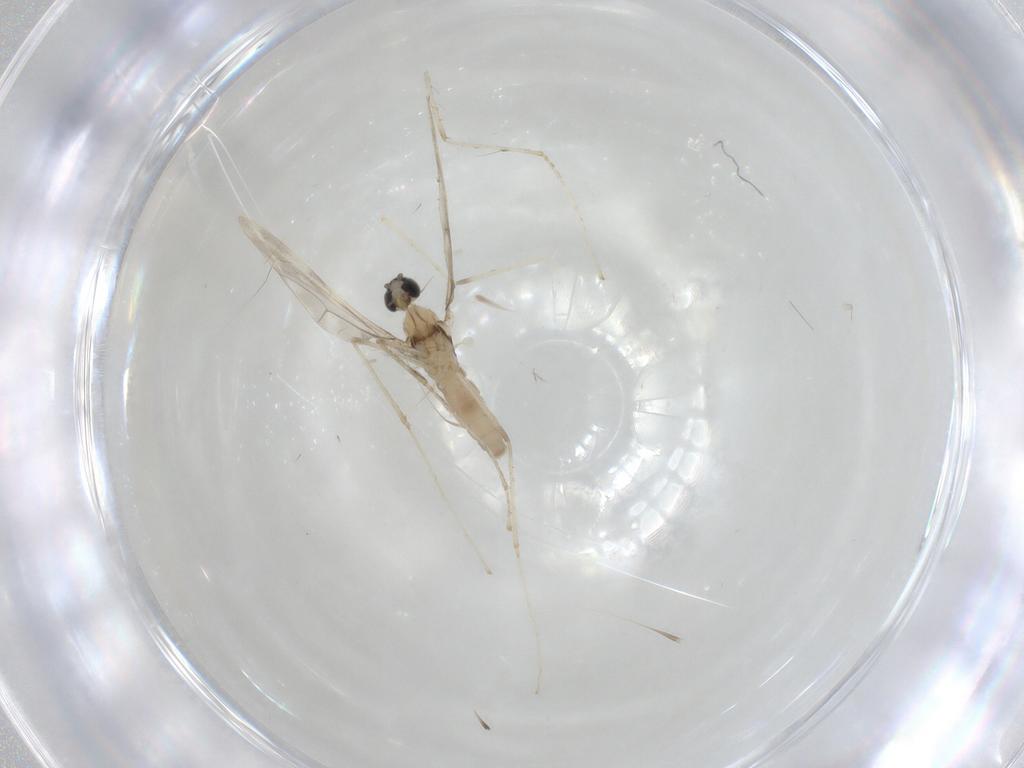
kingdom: Animalia
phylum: Arthropoda
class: Insecta
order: Diptera
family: Cecidomyiidae
